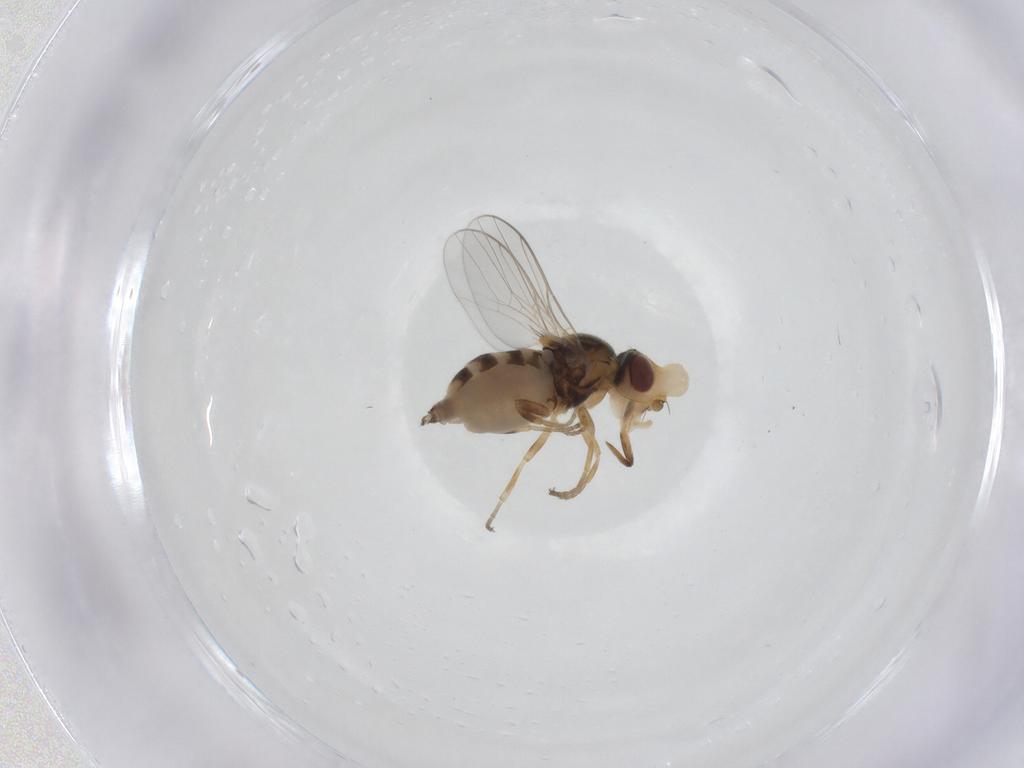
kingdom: Animalia
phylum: Arthropoda
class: Insecta
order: Diptera
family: Chloropidae
